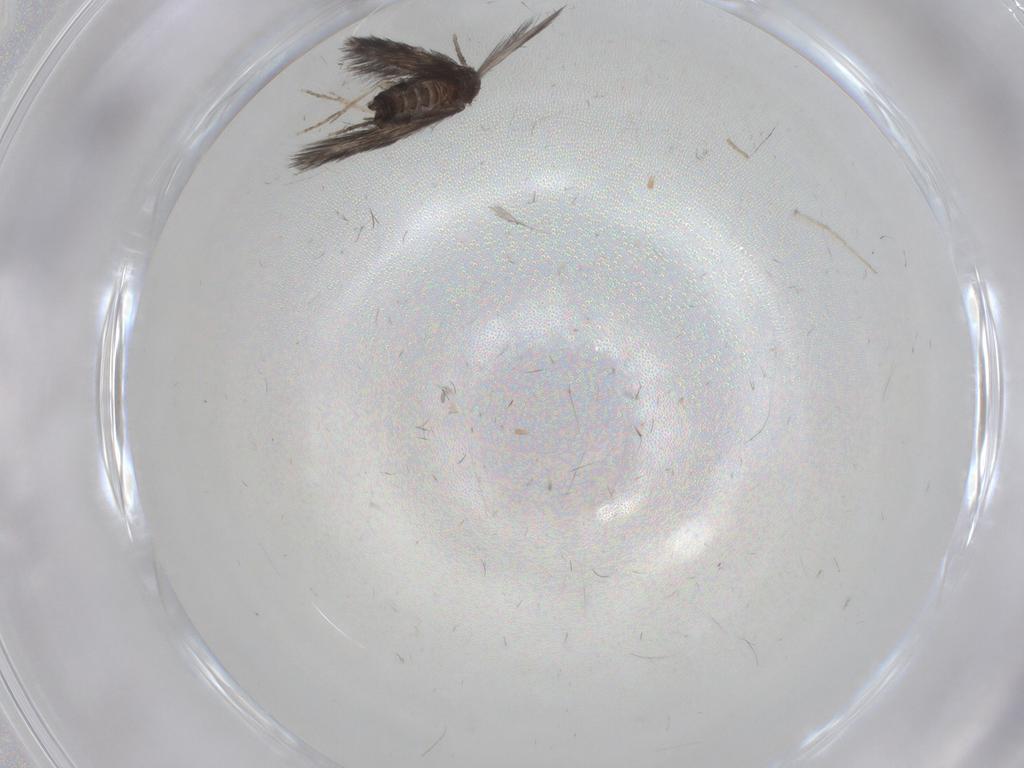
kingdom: Animalia
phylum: Arthropoda
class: Insecta
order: Trichoptera
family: Hydroptilidae
